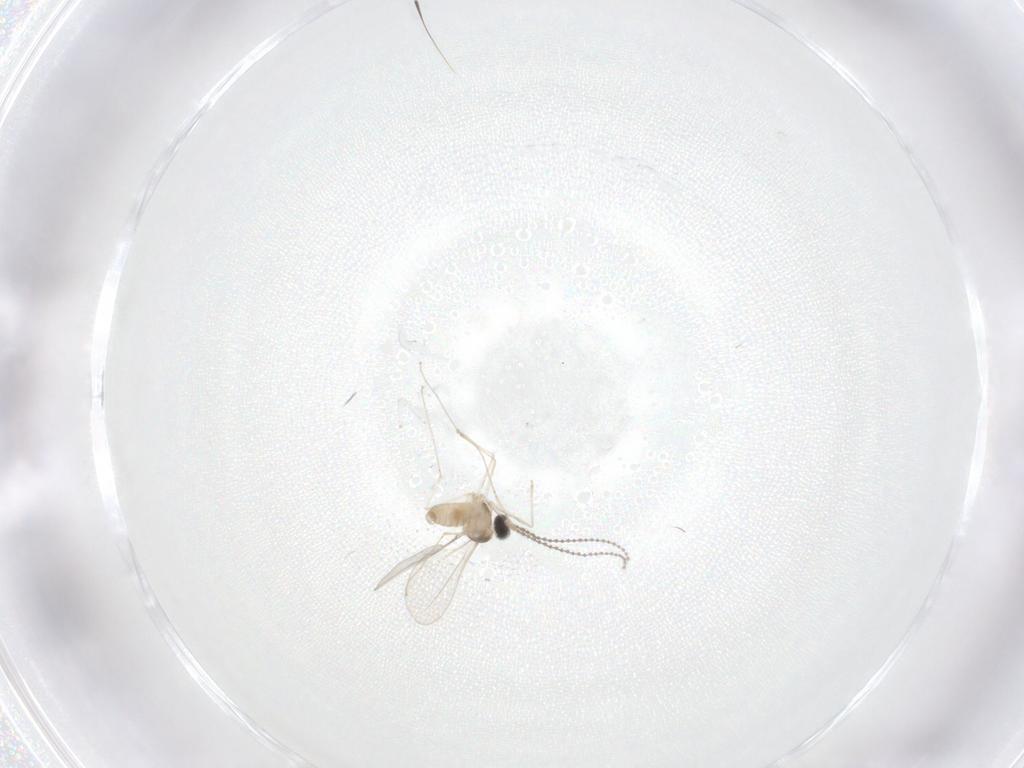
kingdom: Animalia
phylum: Arthropoda
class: Insecta
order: Diptera
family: Cecidomyiidae
